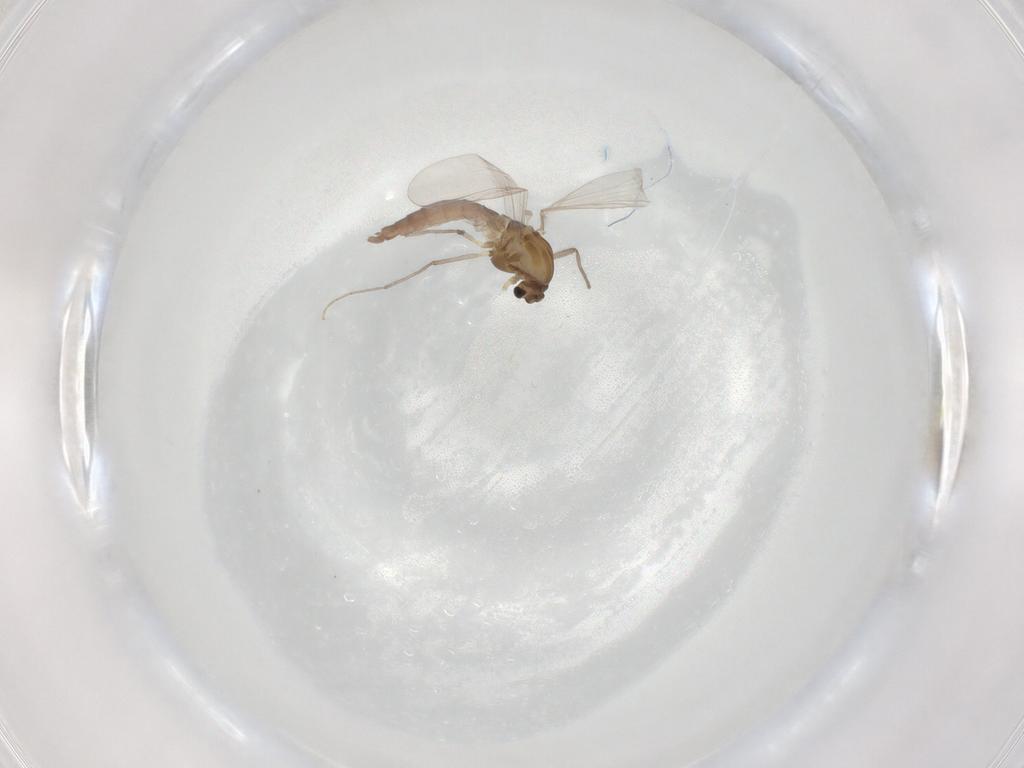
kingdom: Animalia
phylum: Arthropoda
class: Insecta
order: Diptera
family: Chironomidae
